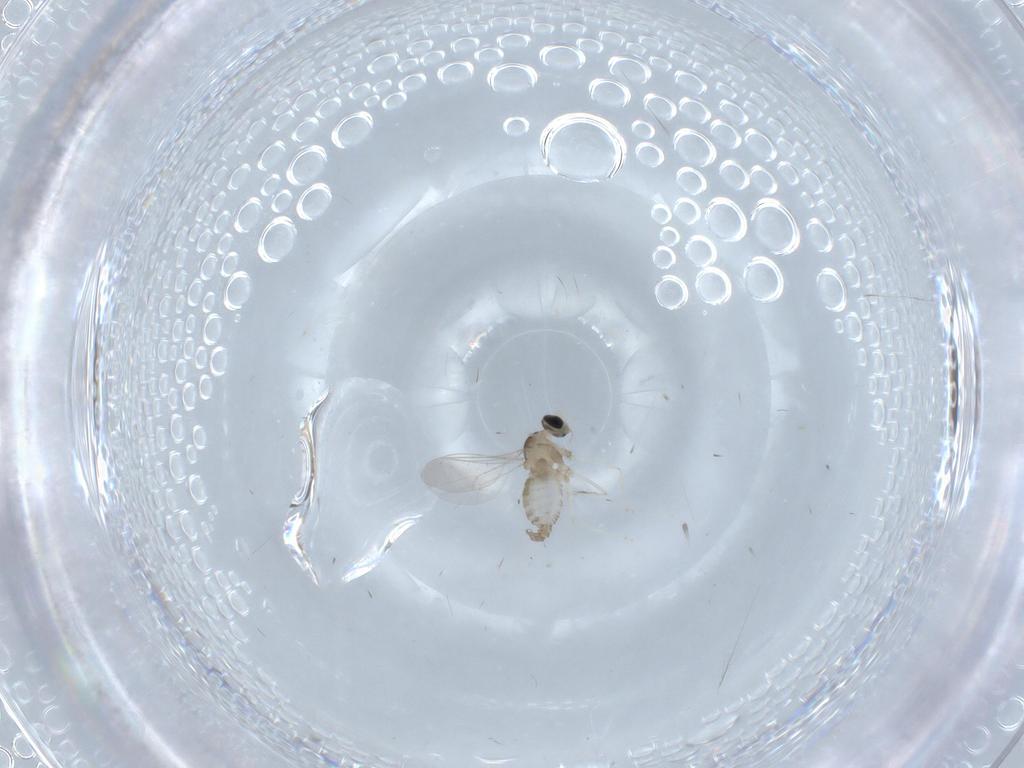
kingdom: Animalia
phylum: Arthropoda
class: Insecta
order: Diptera
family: Cecidomyiidae
